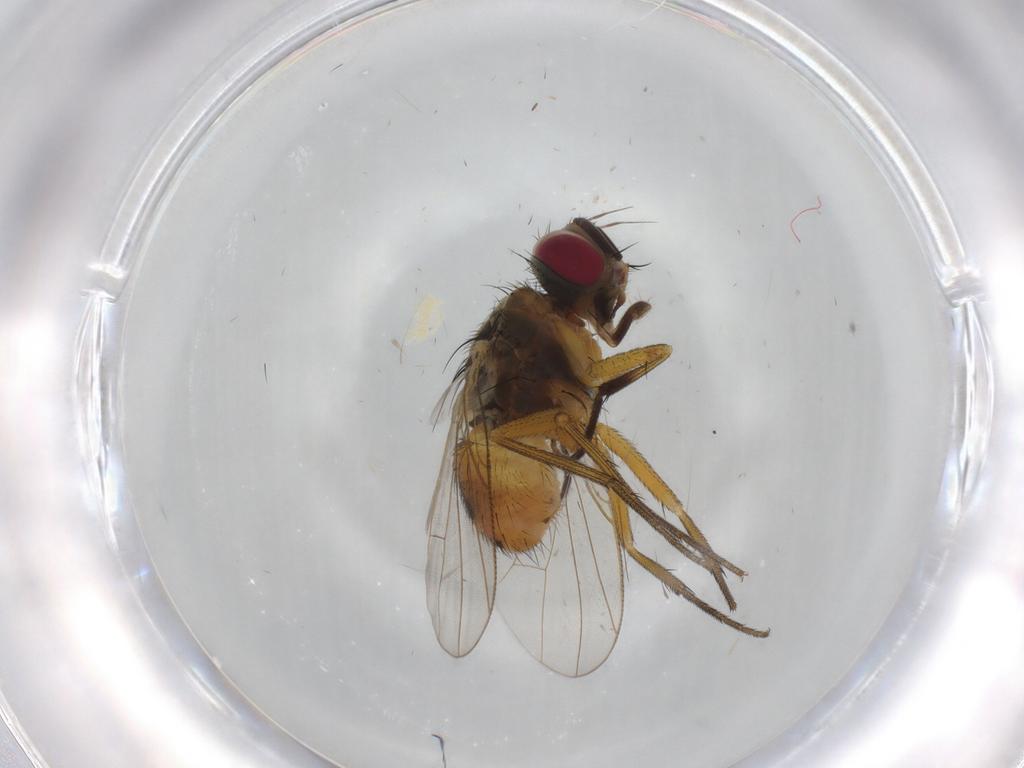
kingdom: Animalia
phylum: Arthropoda
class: Insecta
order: Diptera
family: Muscidae
